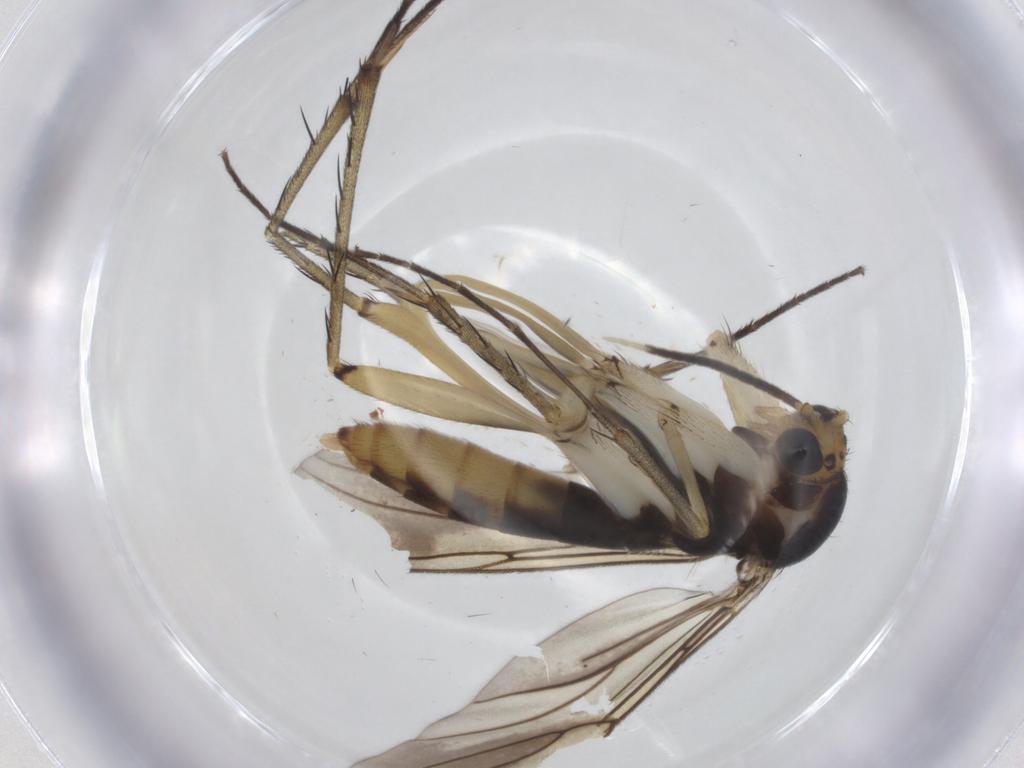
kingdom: Animalia
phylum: Arthropoda
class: Insecta
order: Diptera
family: Mycetophilidae
